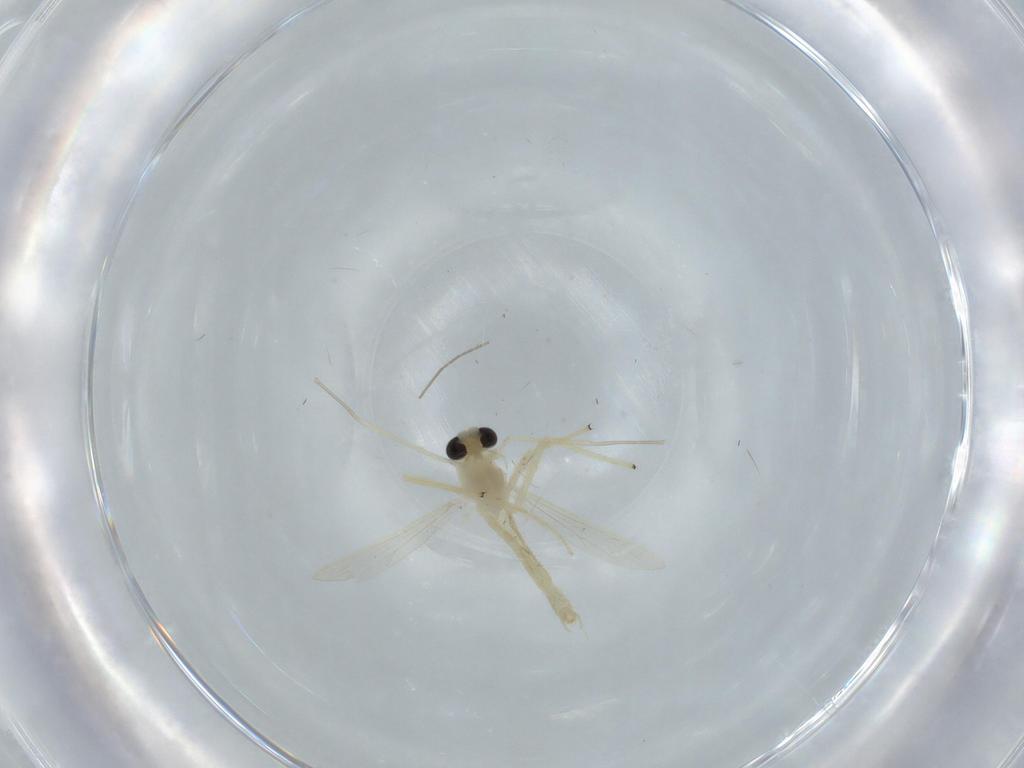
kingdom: Animalia
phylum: Arthropoda
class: Insecta
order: Diptera
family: Chironomidae
